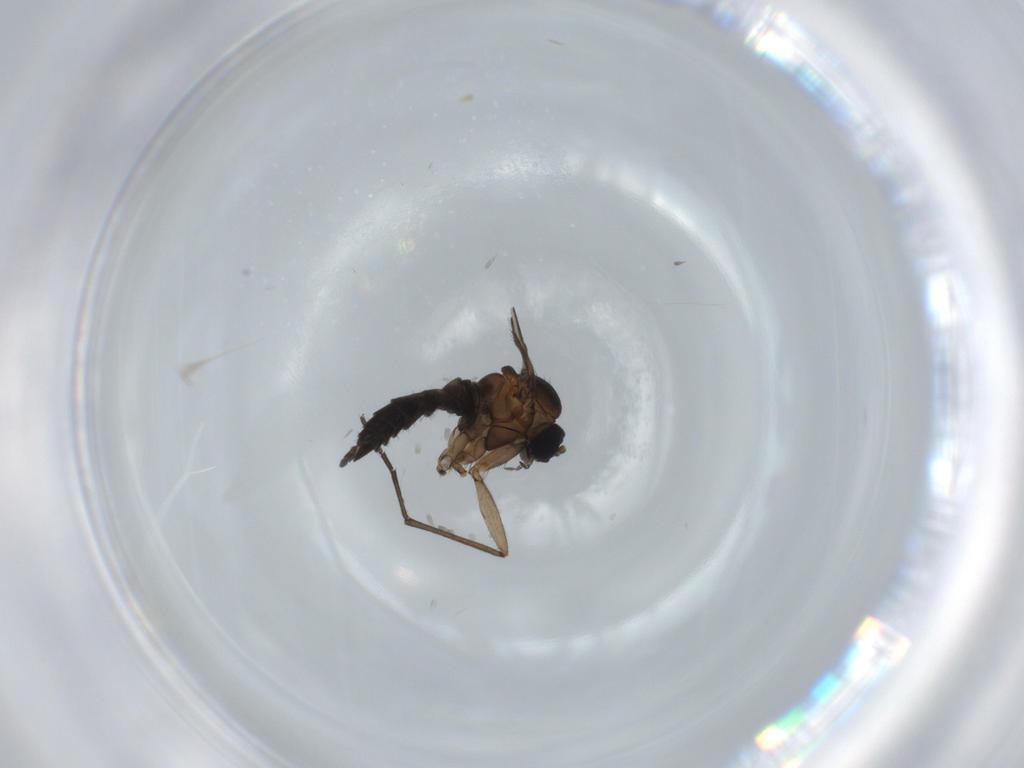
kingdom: Animalia
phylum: Arthropoda
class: Insecta
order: Diptera
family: Sciaridae
